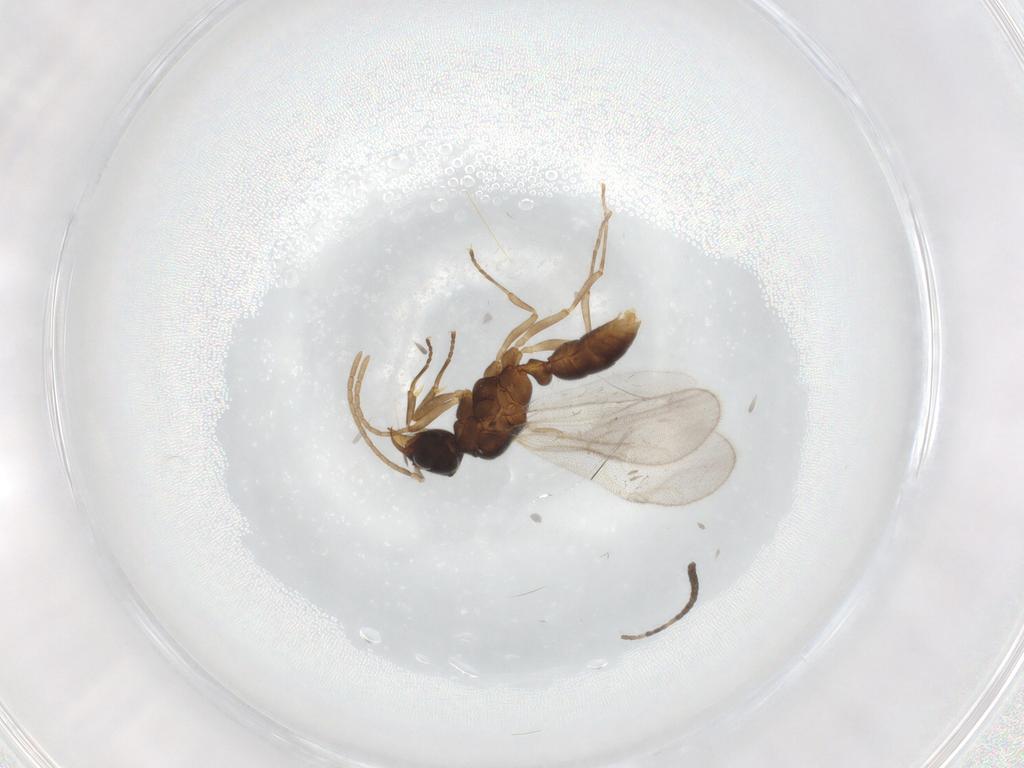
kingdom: Animalia
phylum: Arthropoda
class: Insecta
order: Hymenoptera
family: Formicidae
